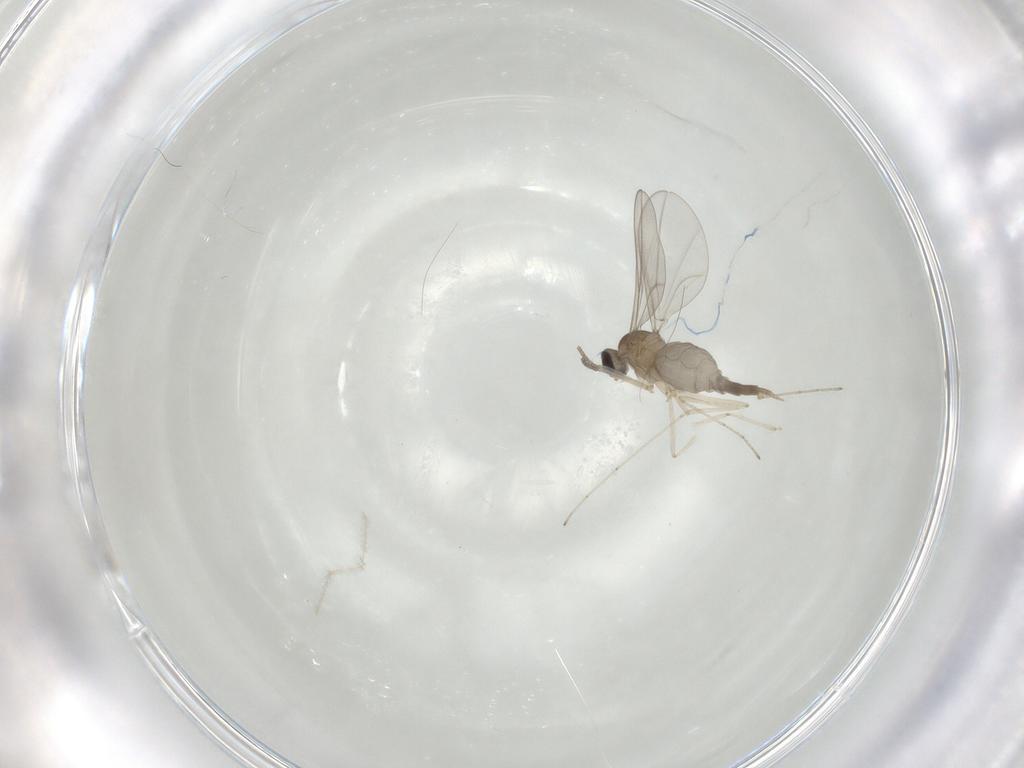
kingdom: Animalia
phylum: Arthropoda
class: Insecta
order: Diptera
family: Cecidomyiidae
